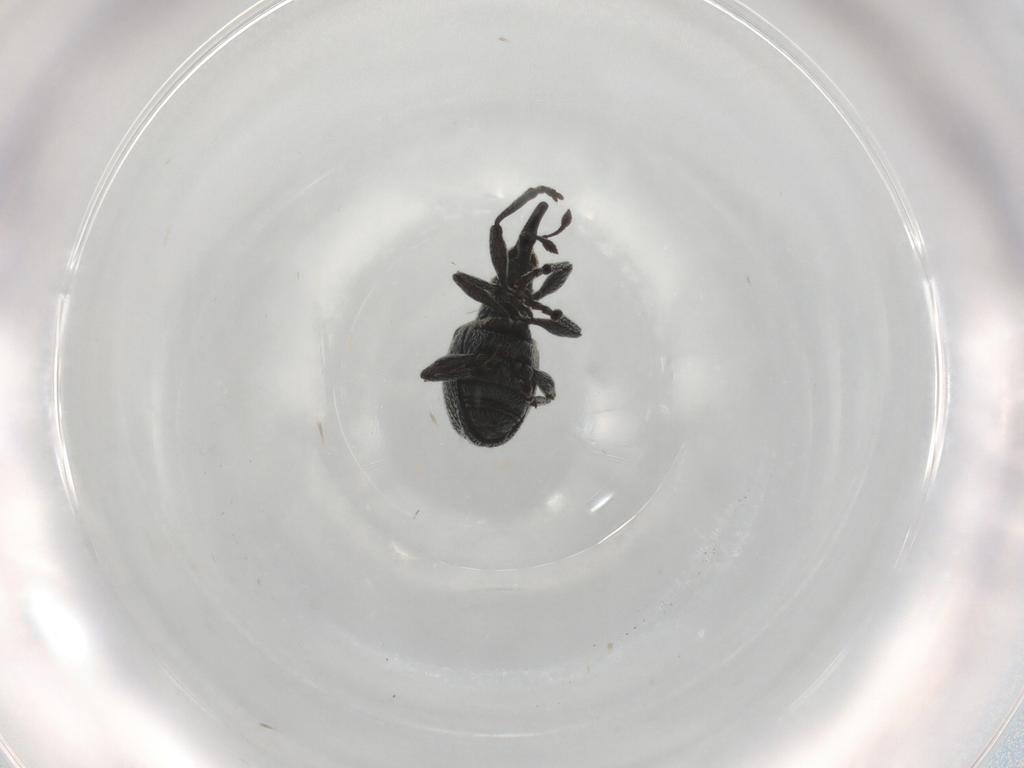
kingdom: Animalia
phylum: Arthropoda
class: Insecta
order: Coleoptera
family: Brentidae
